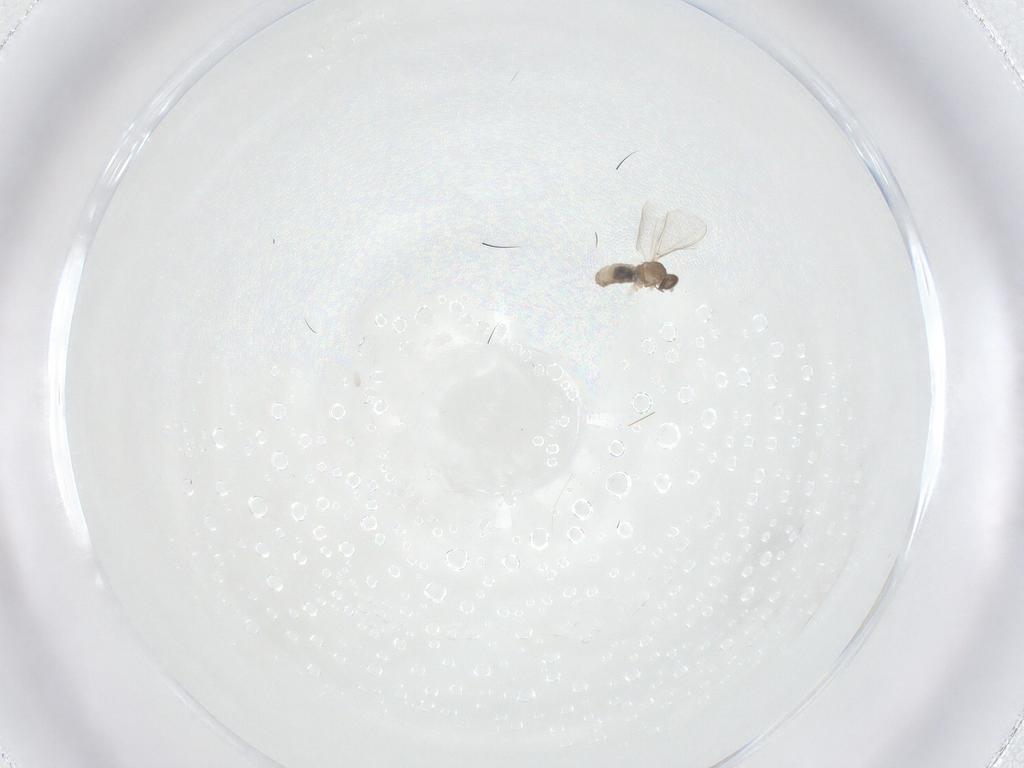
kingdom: Animalia
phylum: Arthropoda
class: Insecta
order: Diptera
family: Cecidomyiidae
